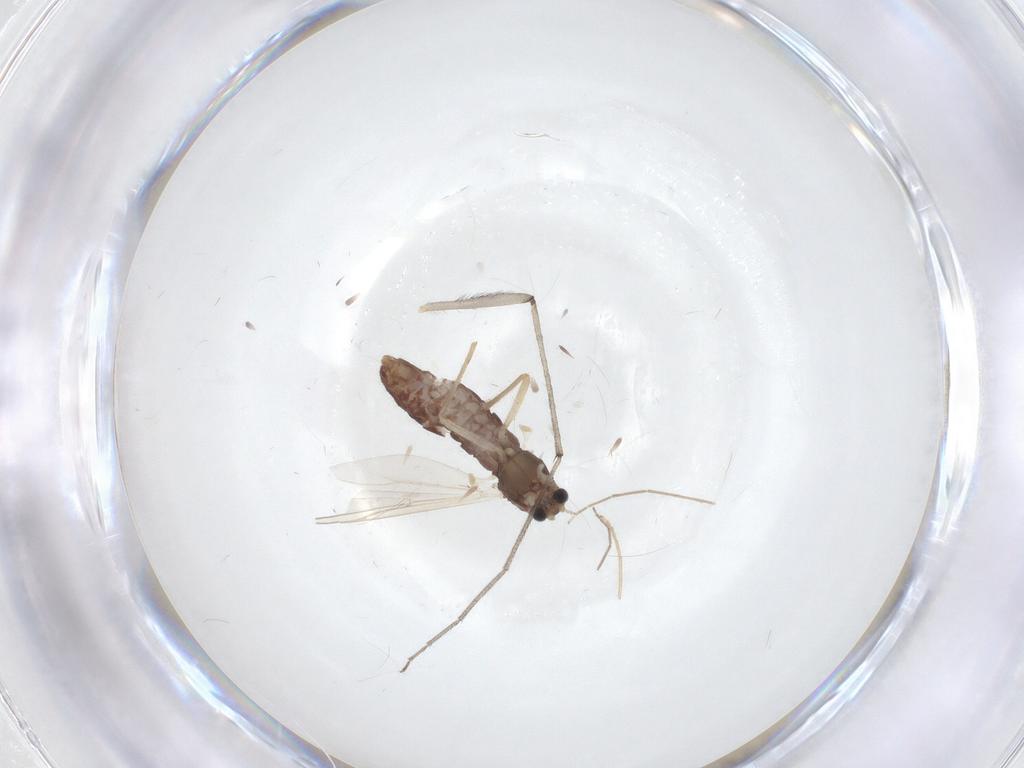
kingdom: Animalia
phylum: Arthropoda
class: Insecta
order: Diptera
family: Chironomidae
